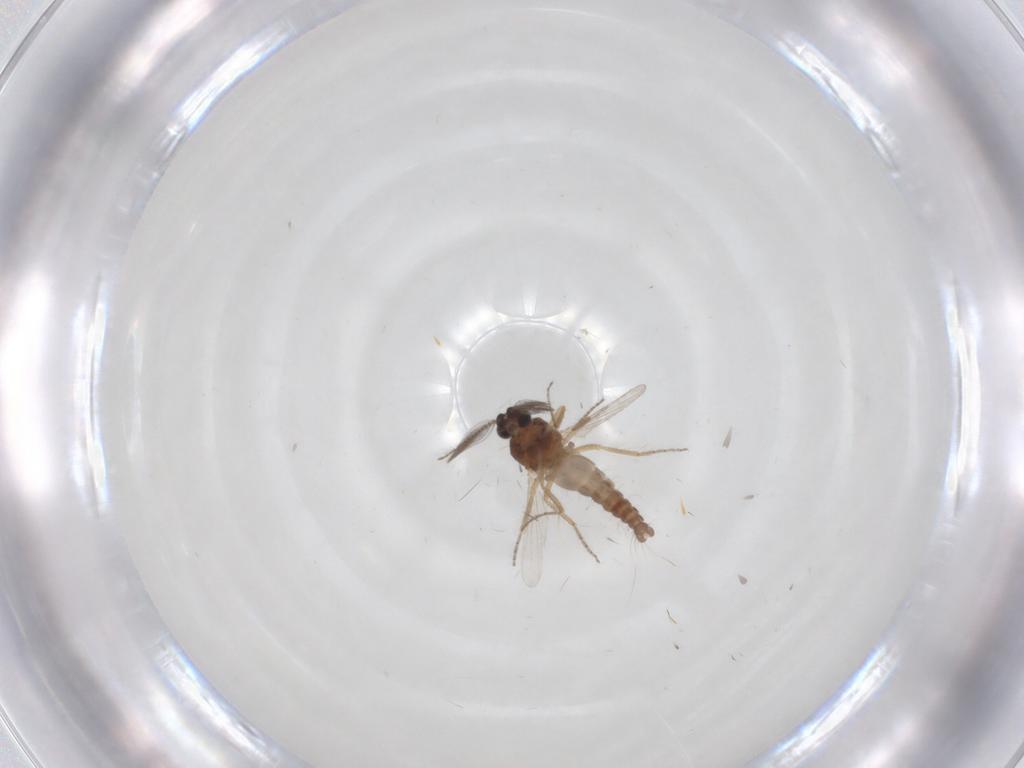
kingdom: Animalia
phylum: Arthropoda
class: Insecta
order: Diptera
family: Ceratopogonidae
